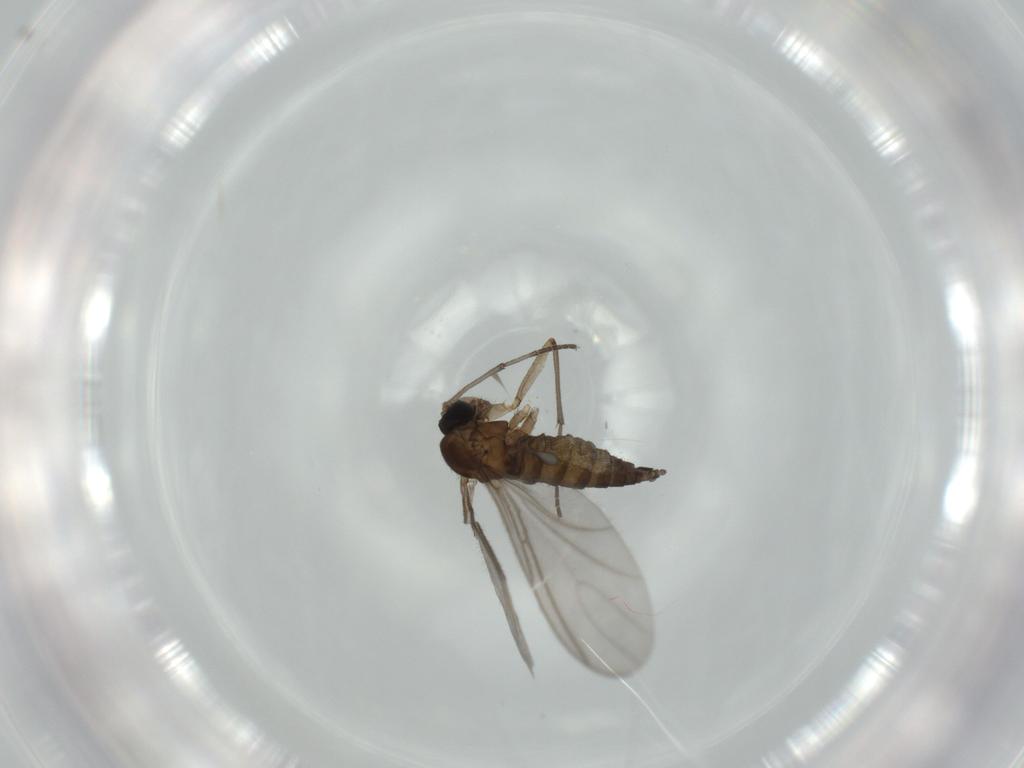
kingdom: Animalia
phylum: Arthropoda
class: Insecta
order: Diptera
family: Sciaridae
